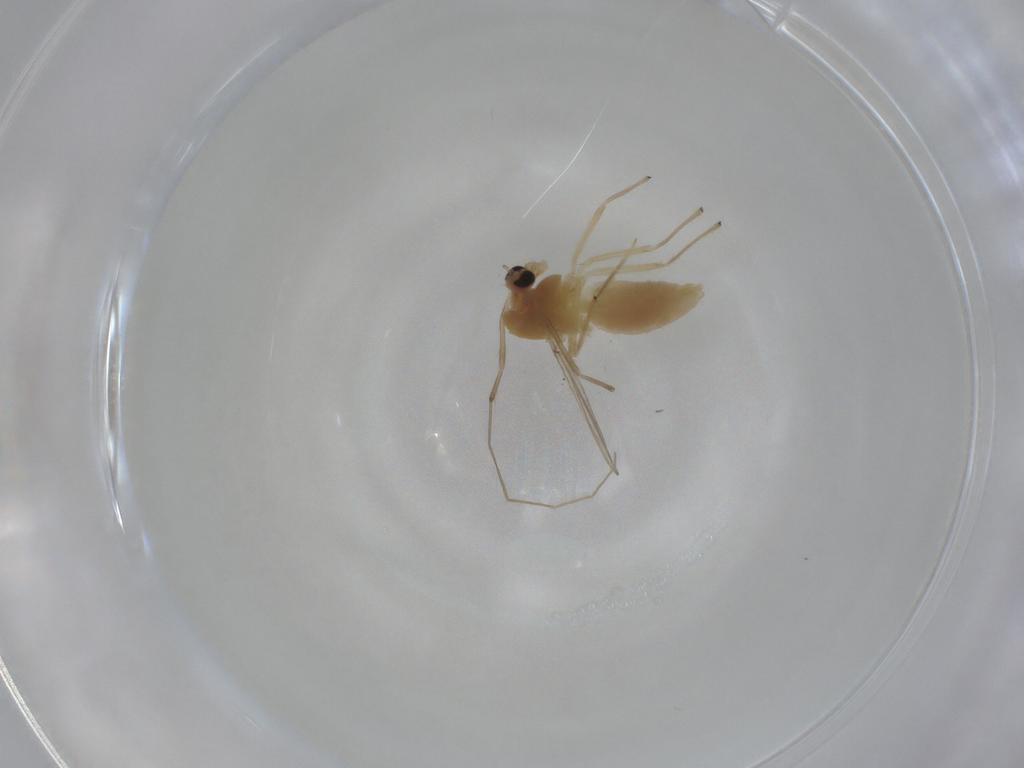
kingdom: Animalia
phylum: Arthropoda
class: Insecta
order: Diptera
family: Chironomidae
